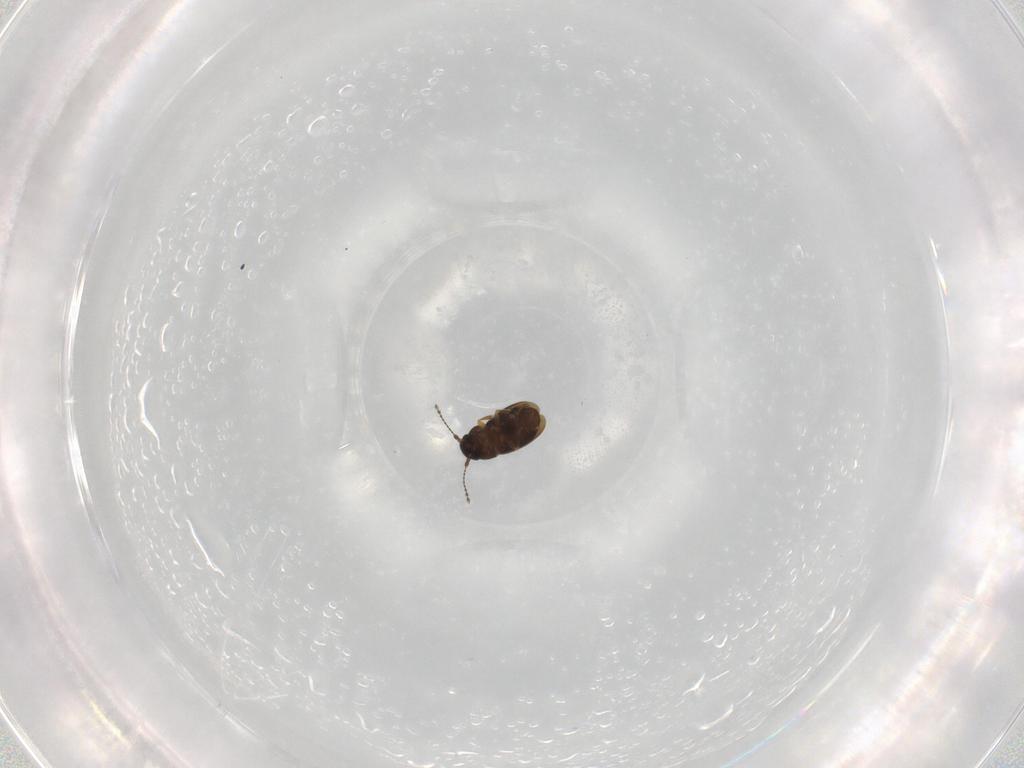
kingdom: Animalia
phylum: Arthropoda
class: Insecta
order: Coleoptera
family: Ptiliidae
